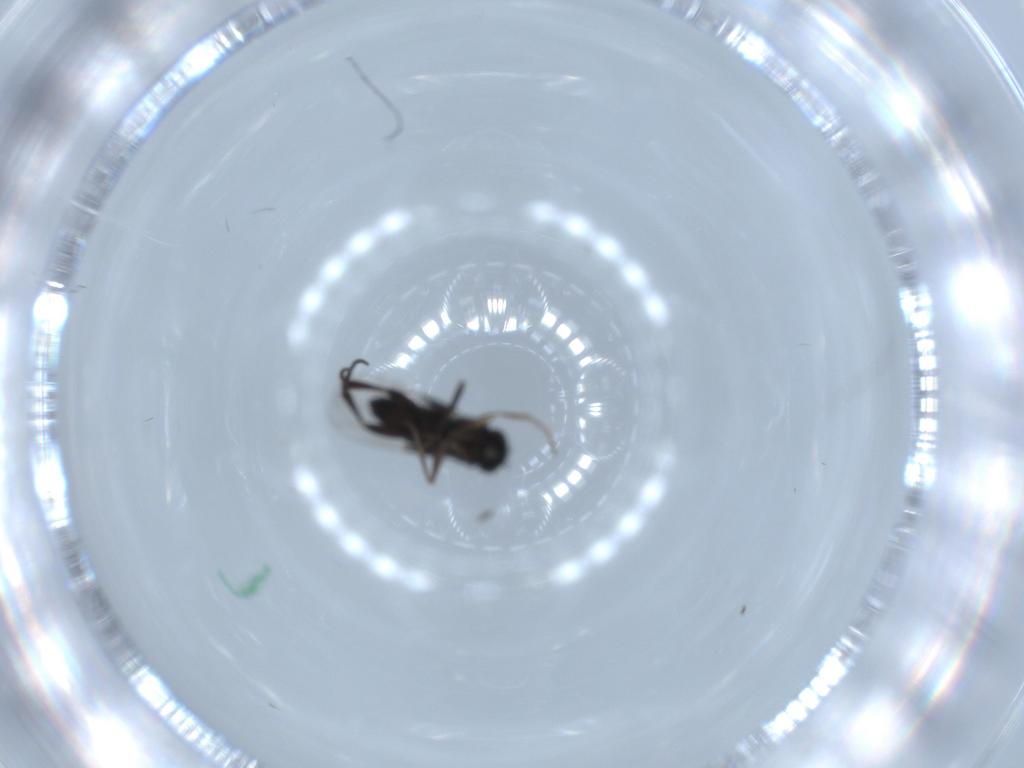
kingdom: Animalia
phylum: Arthropoda
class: Insecta
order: Diptera
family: Phoridae
